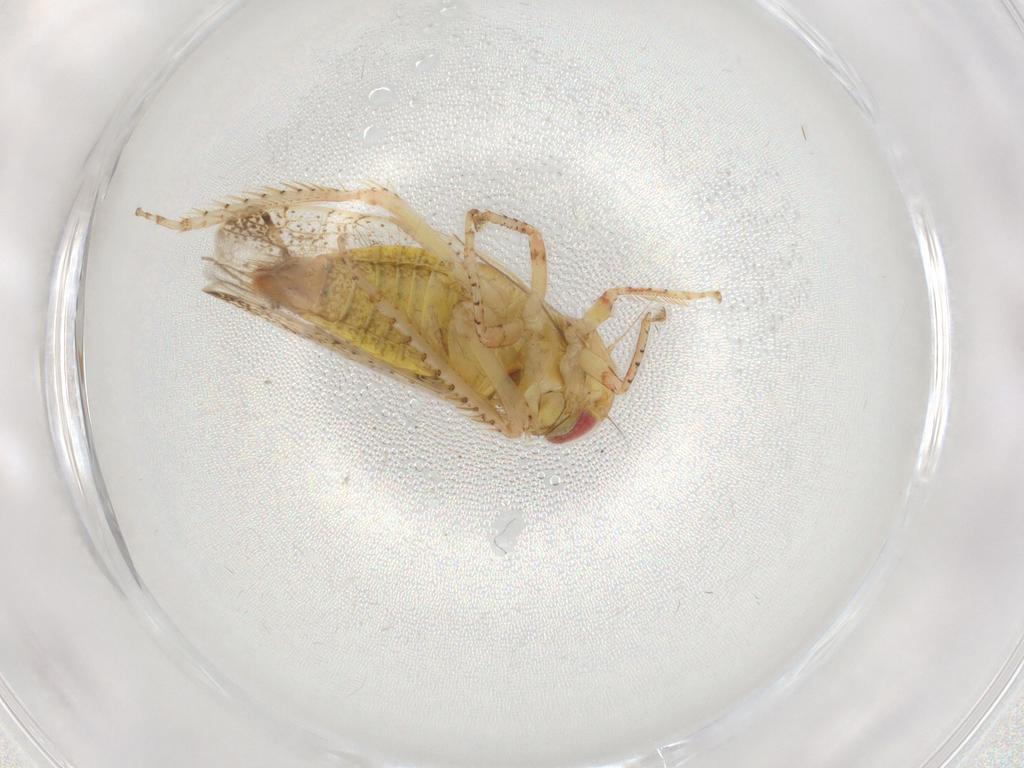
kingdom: Animalia
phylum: Arthropoda
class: Insecta
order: Hemiptera
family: Cicadellidae
